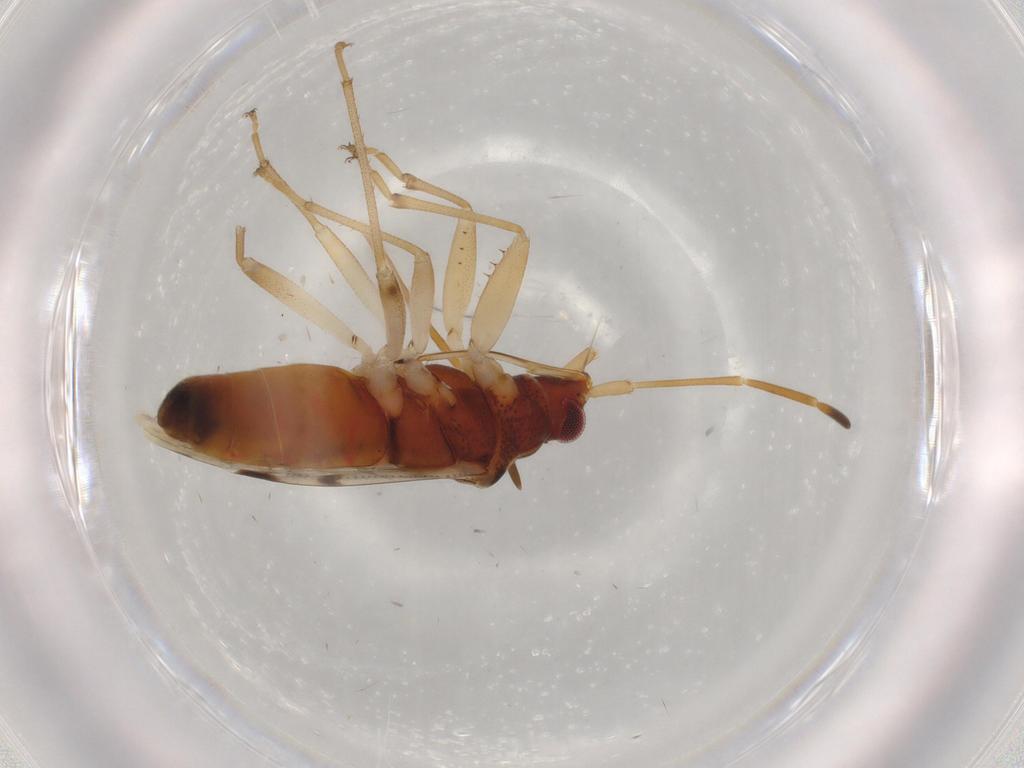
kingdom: Animalia
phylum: Arthropoda
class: Insecta
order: Hemiptera
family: Rhyparochromidae
